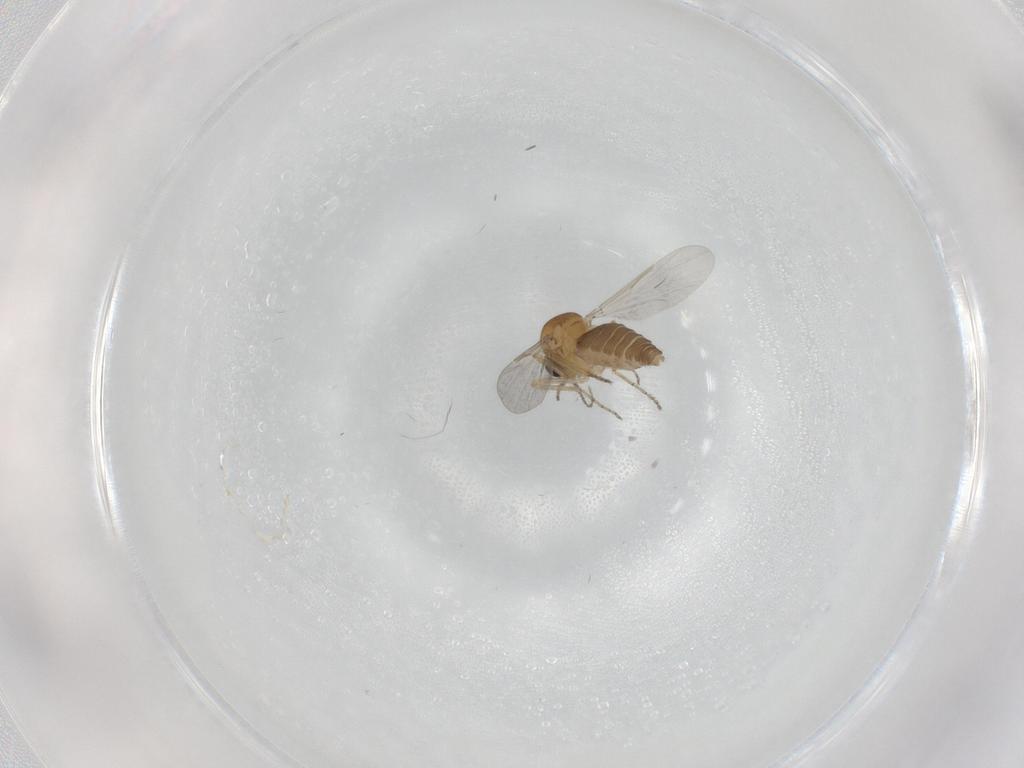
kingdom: Animalia
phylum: Arthropoda
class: Insecta
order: Diptera
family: Ceratopogonidae
